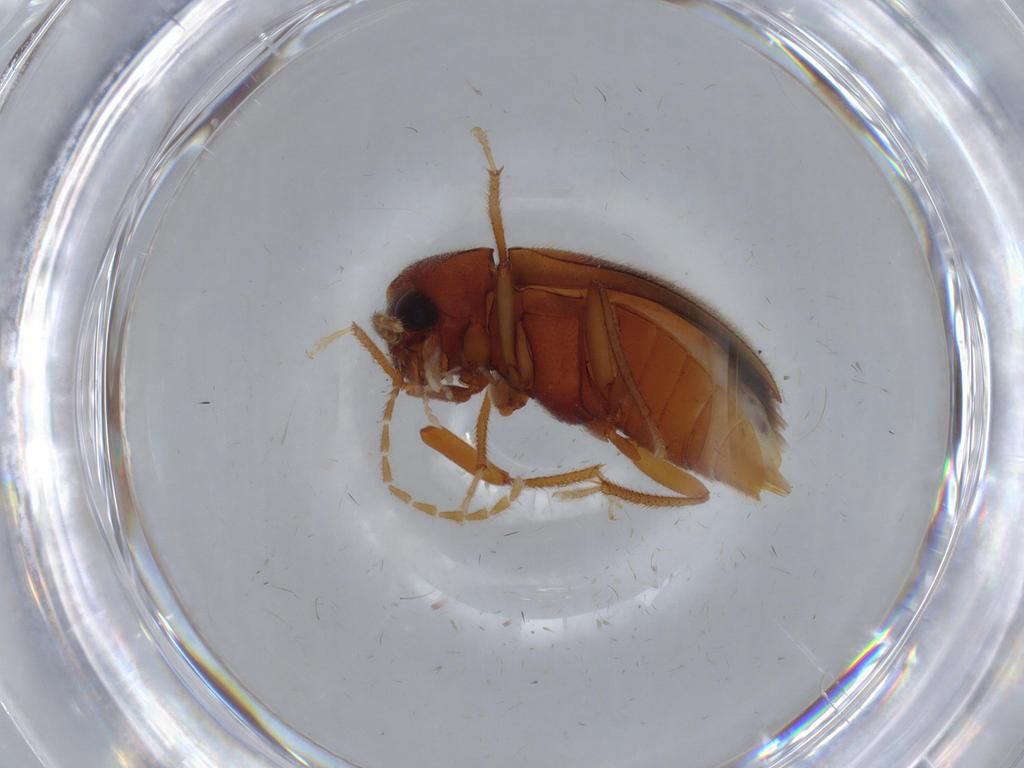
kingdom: Animalia
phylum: Arthropoda
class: Insecta
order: Coleoptera
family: Ptilodactylidae
